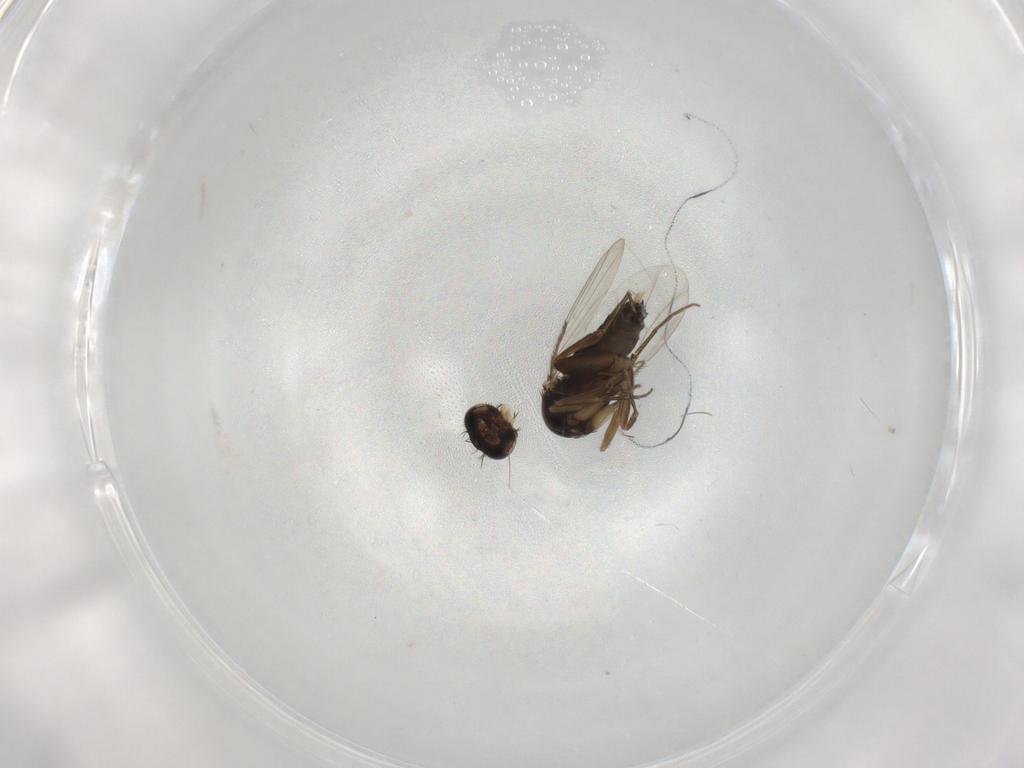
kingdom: Animalia
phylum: Arthropoda
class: Insecta
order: Diptera
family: Phoridae
